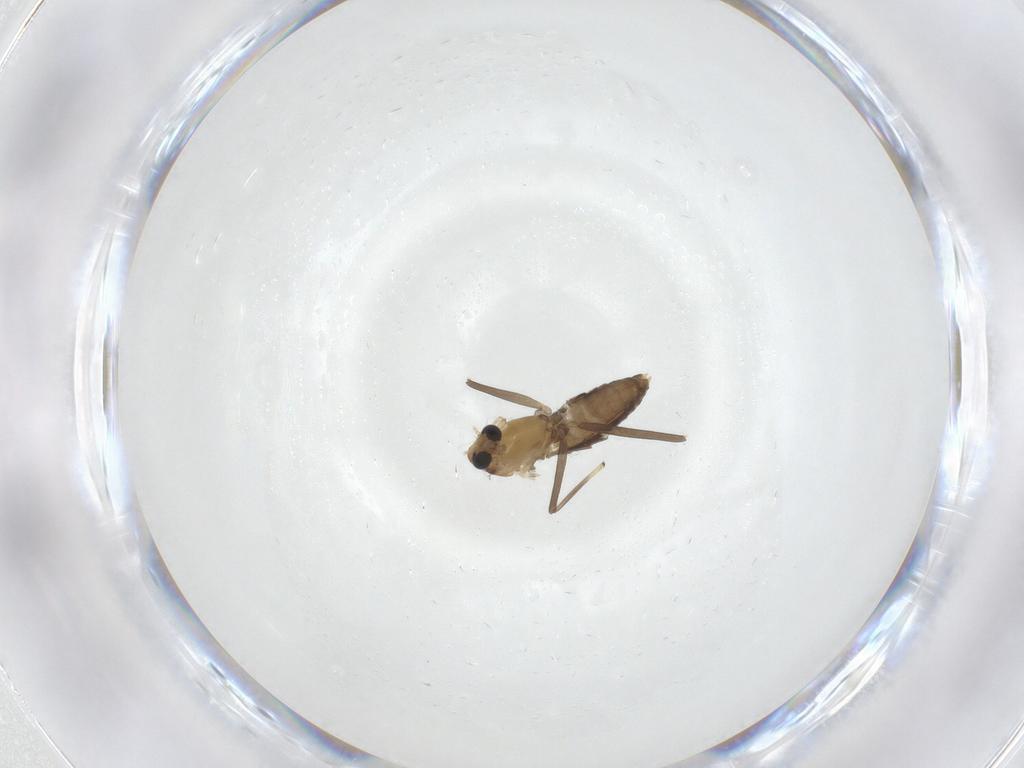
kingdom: Animalia
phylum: Arthropoda
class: Insecta
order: Diptera
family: Chironomidae
